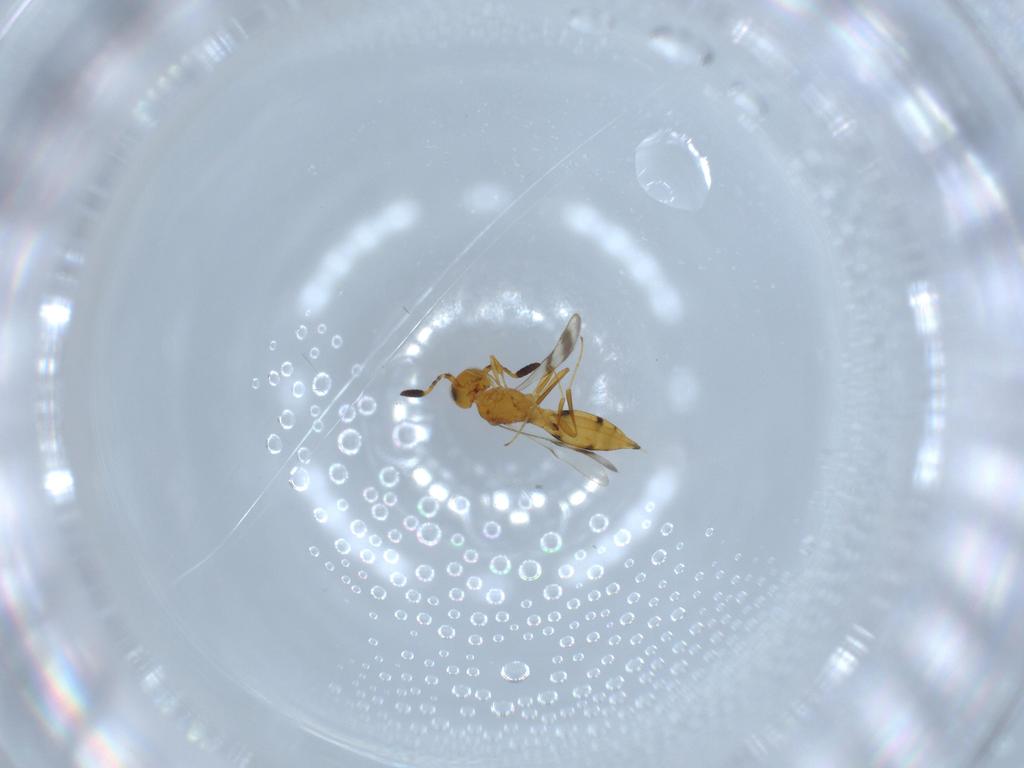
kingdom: Animalia
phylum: Arthropoda
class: Insecta
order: Hymenoptera
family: Scelionidae
